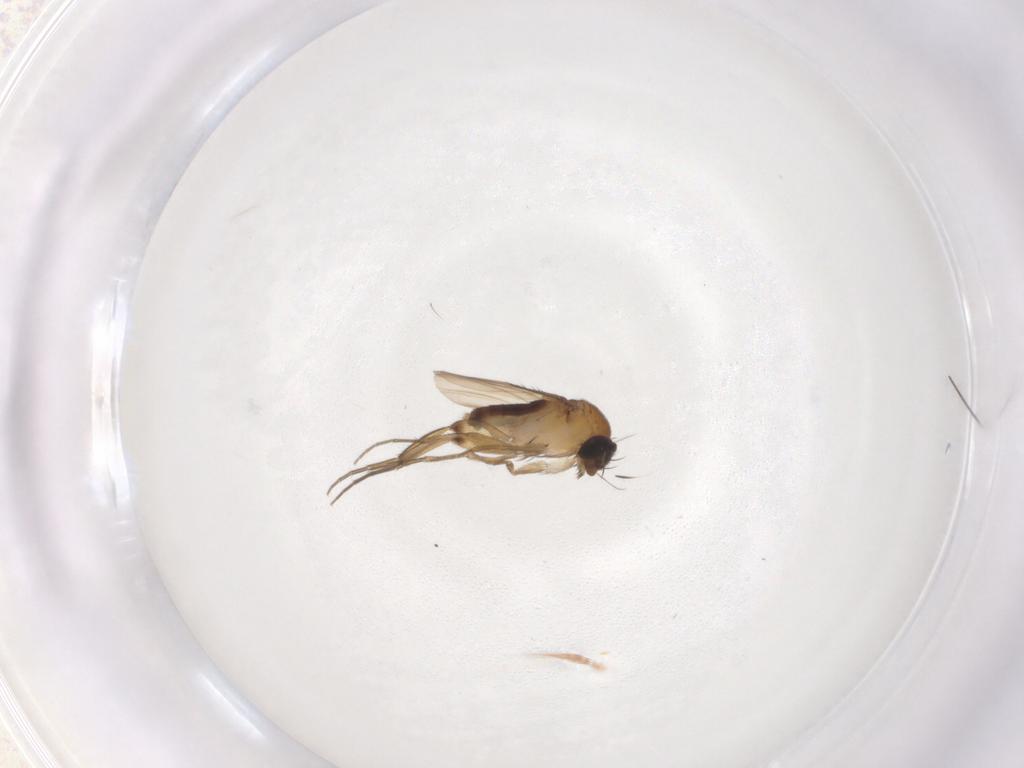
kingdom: Animalia
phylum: Arthropoda
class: Insecta
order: Diptera
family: Phoridae
